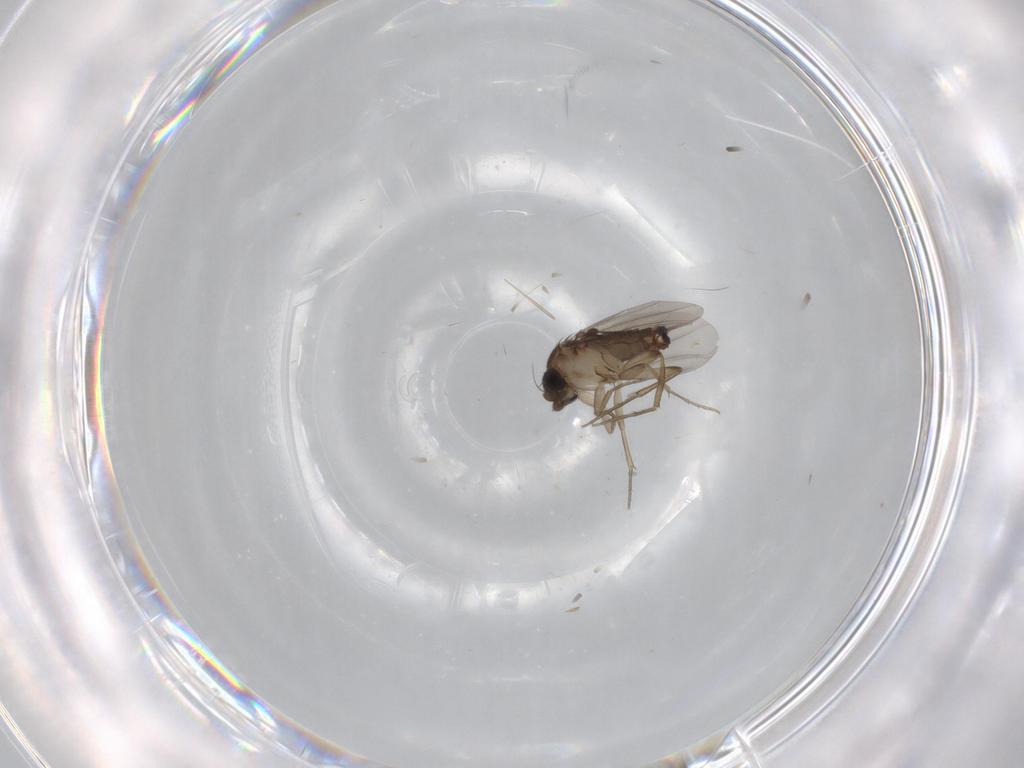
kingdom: Animalia
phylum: Arthropoda
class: Insecta
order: Diptera
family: Phoridae
